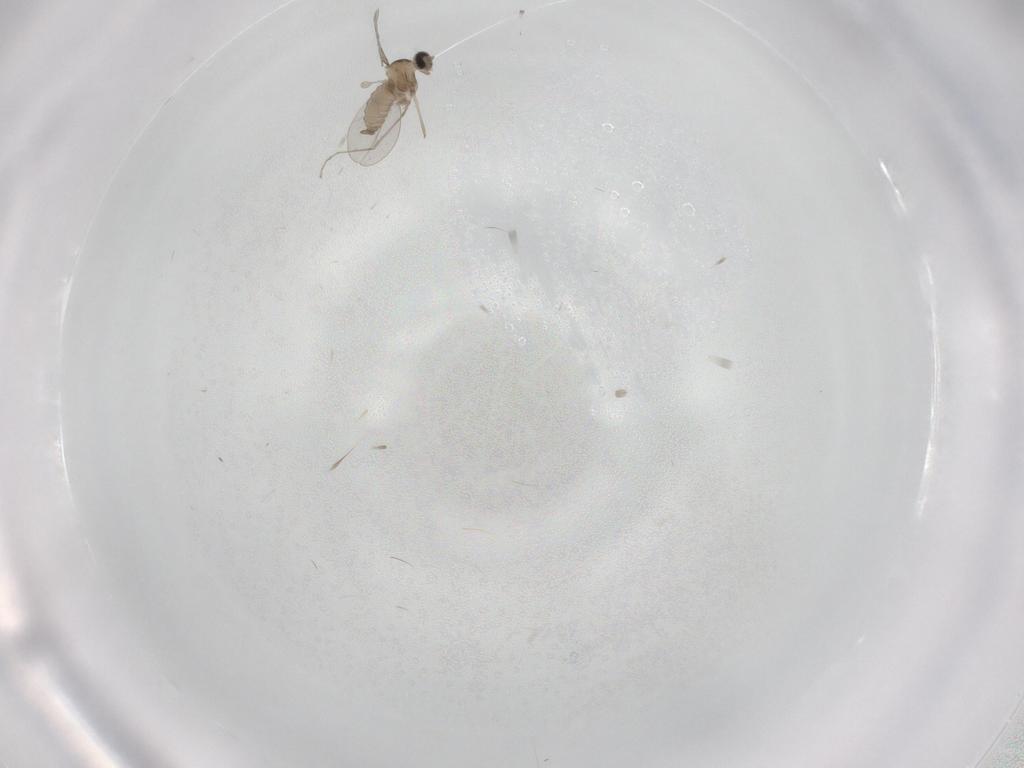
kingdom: Animalia
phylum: Arthropoda
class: Insecta
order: Diptera
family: Cecidomyiidae
